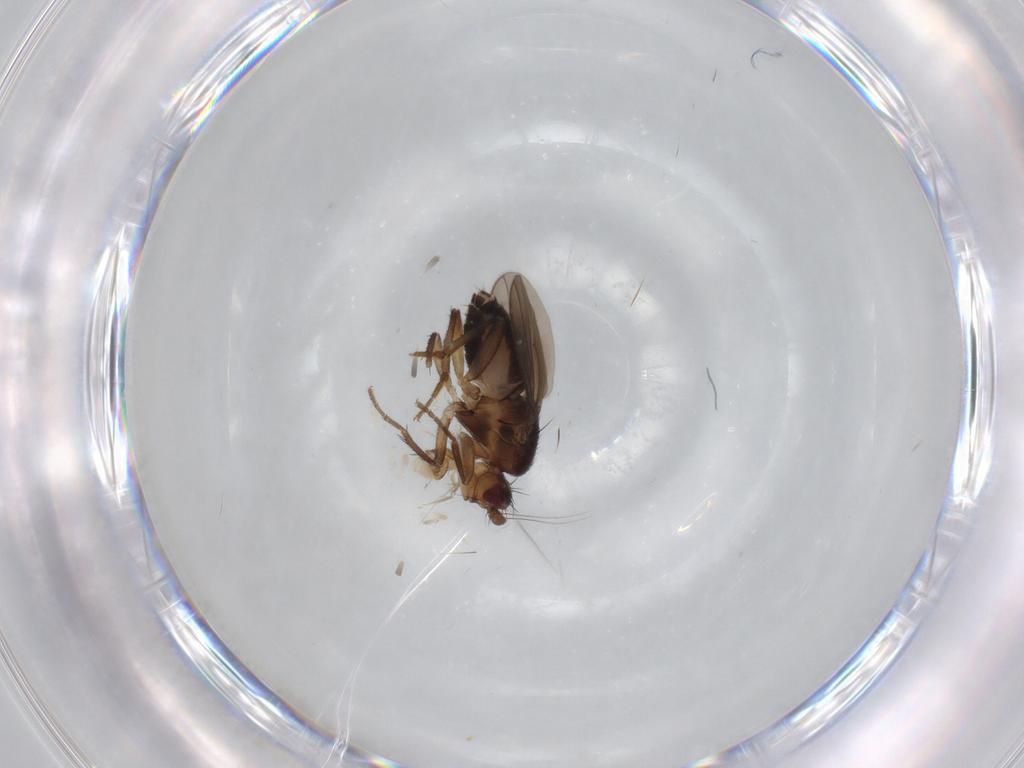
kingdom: Animalia
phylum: Arthropoda
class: Insecta
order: Diptera
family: Sphaeroceridae
